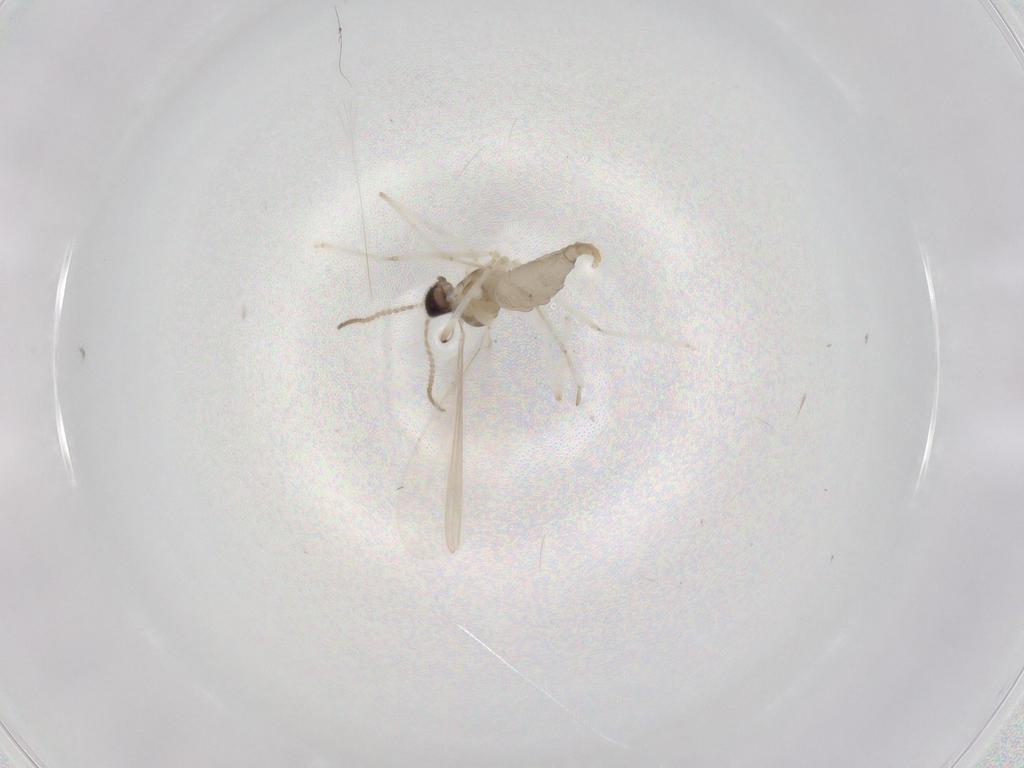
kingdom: Animalia
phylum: Arthropoda
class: Insecta
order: Diptera
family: Cecidomyiidae
